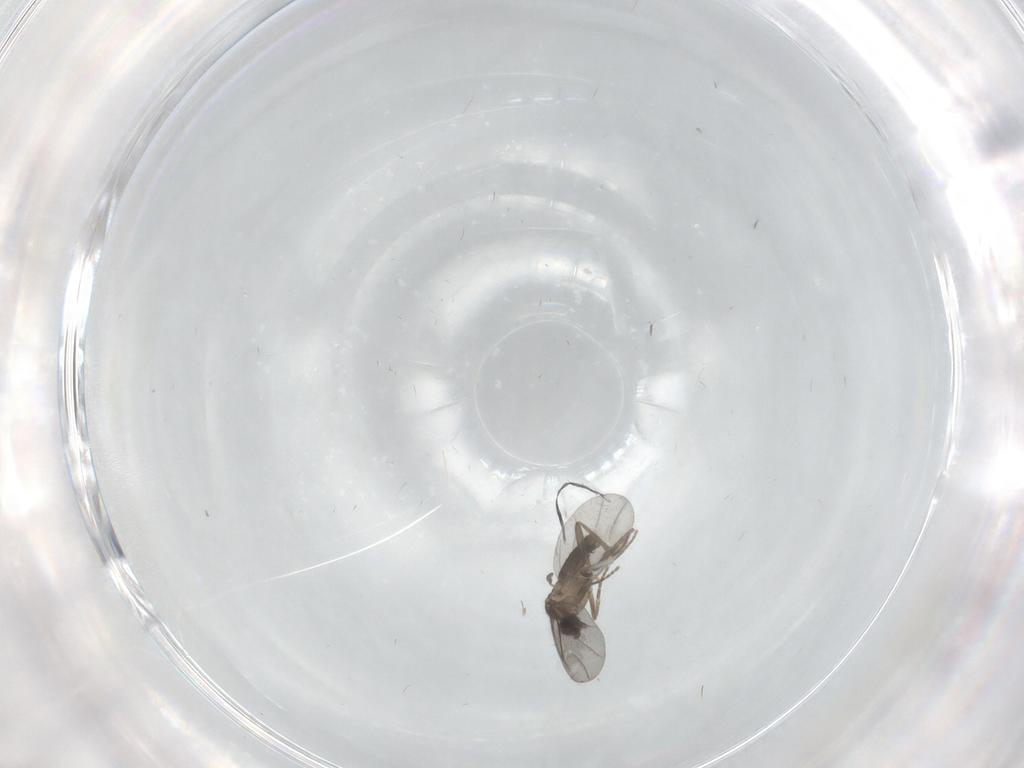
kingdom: Animalia
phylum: Arthropoda
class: Insecta
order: Diptera
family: Phoridae
